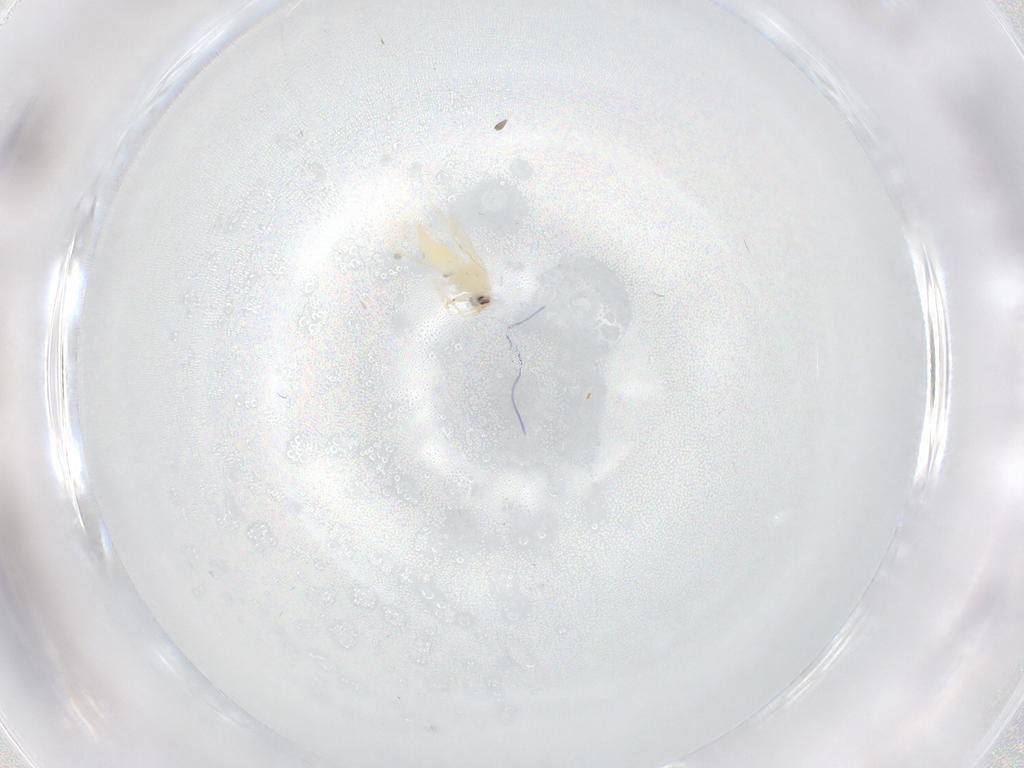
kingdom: Animalia
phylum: Arthropoda
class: Insecta
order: Hemiptera
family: Aleyrodidae
